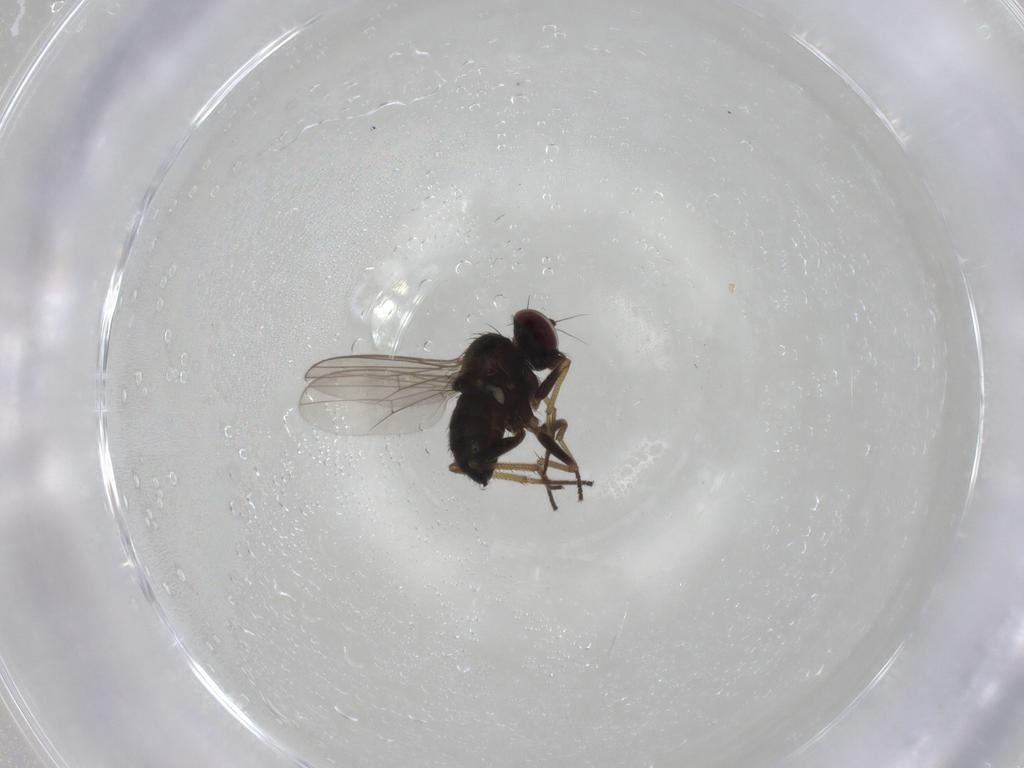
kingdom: Animalia
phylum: Arthropoda
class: Insecta
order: Diptera
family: Dolichopodidae
